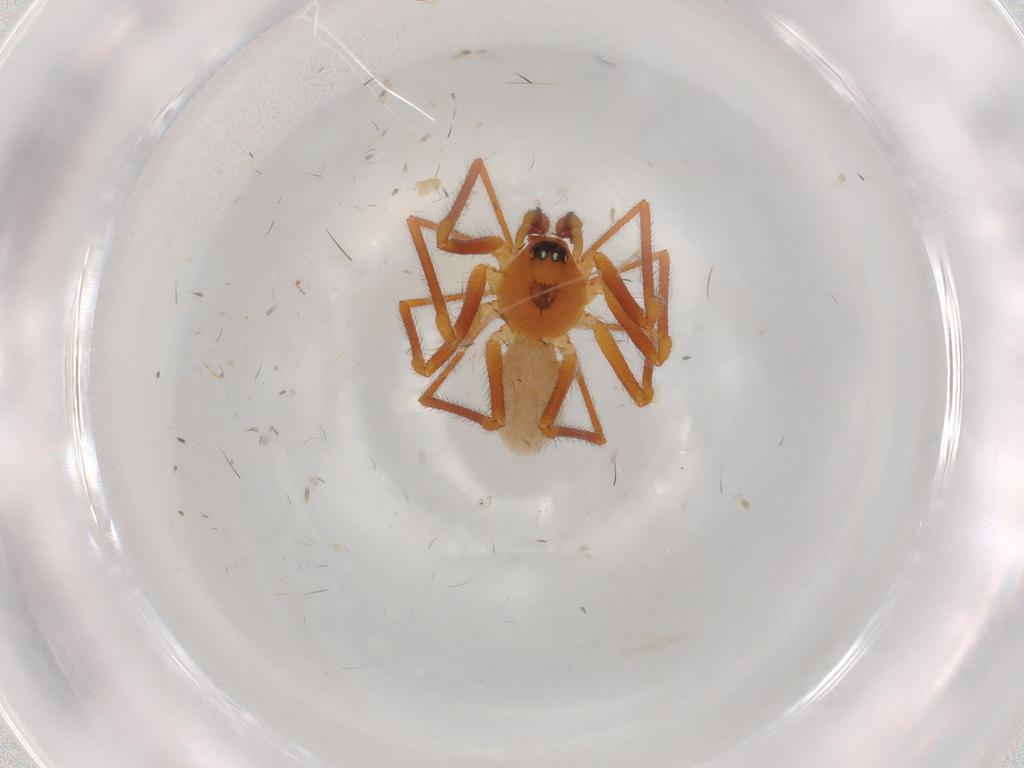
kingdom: Animalia
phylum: Arthropoda
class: Arachnida
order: Araneae
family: Linyphiidae
